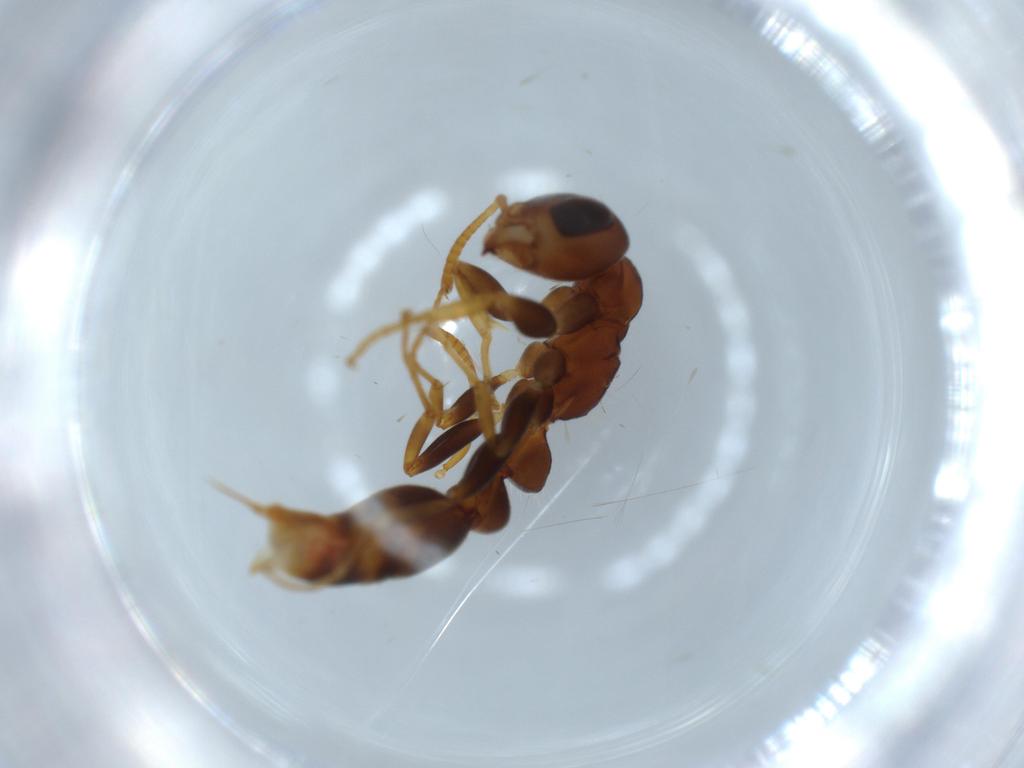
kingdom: Animalia
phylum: Arthropoda
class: Insecta
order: Hymenoptera
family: Formicidae
